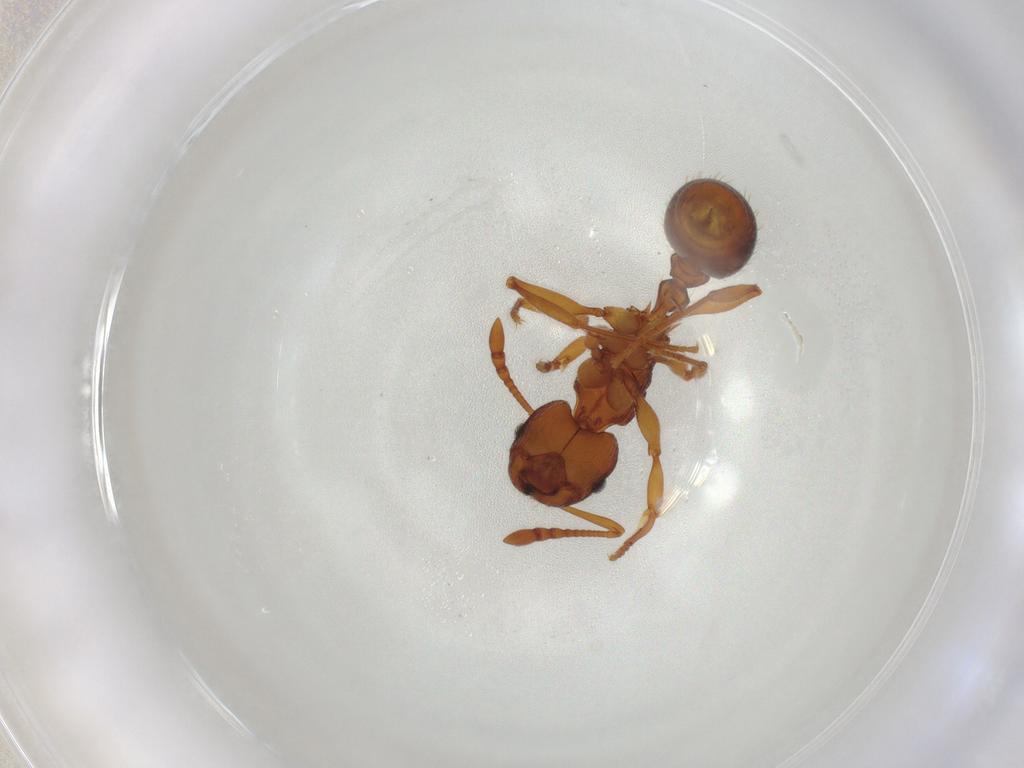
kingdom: Animalia
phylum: Arthropoda
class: Insecta
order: Hymenoptera
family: Formicidae
